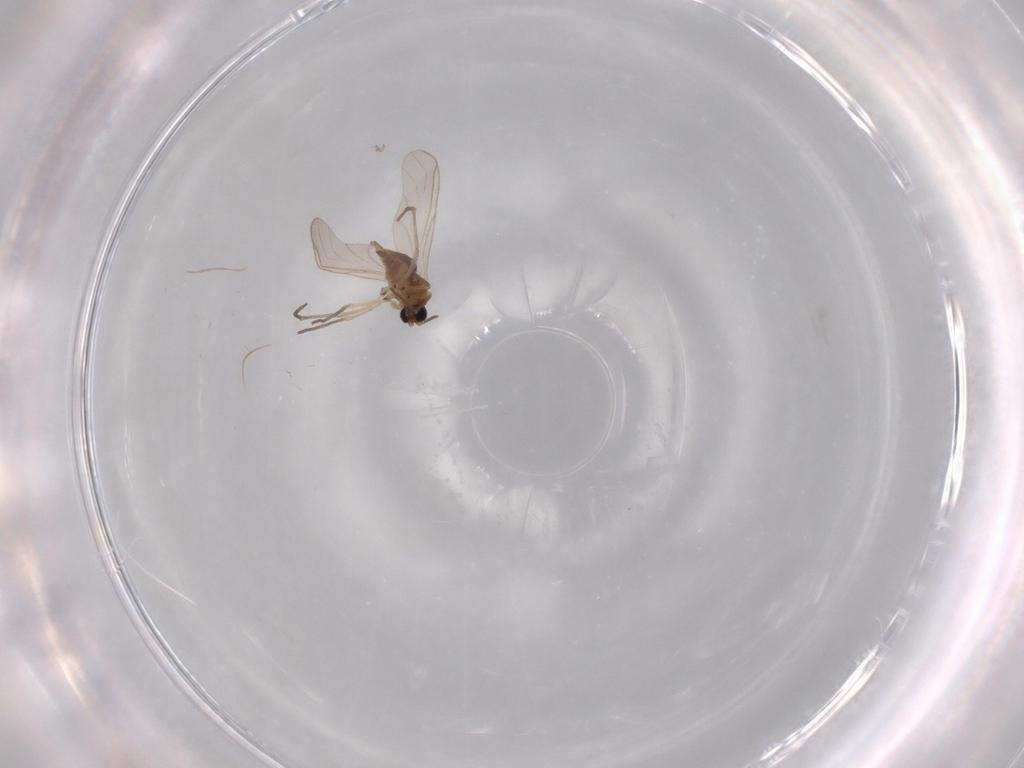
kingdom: Animalia
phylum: Arthropoda
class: Insecta
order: Diptera
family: Sciaridae
